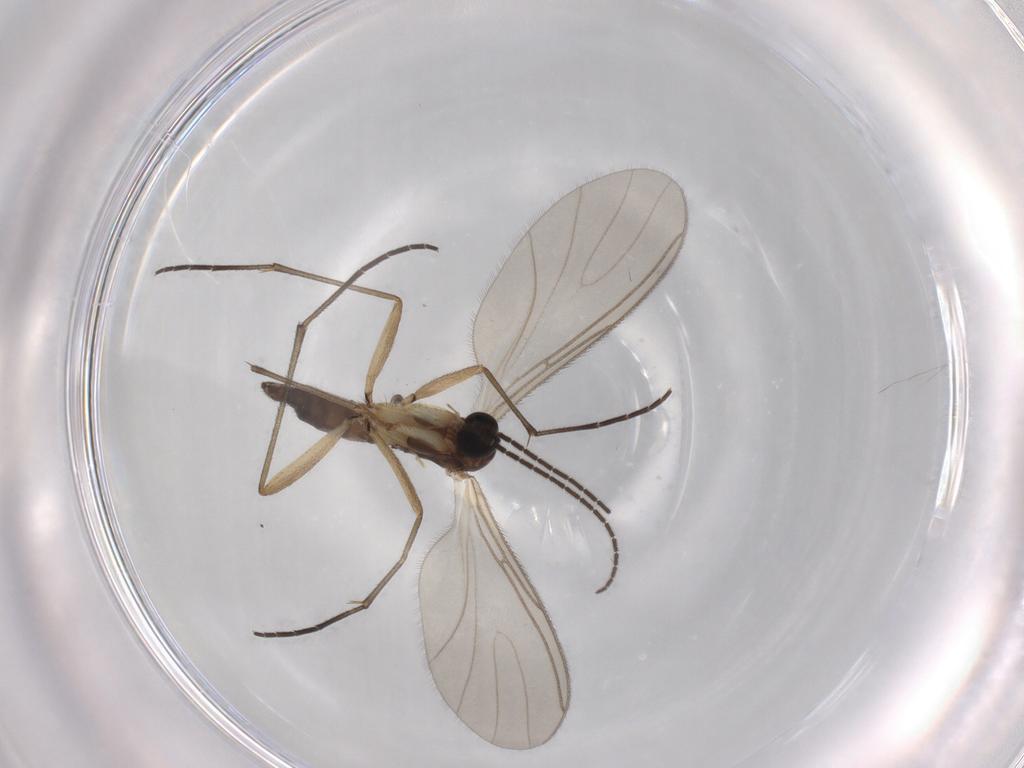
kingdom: Animalia
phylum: Arthropoda
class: Insecta
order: Diptera
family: Sciaridae
